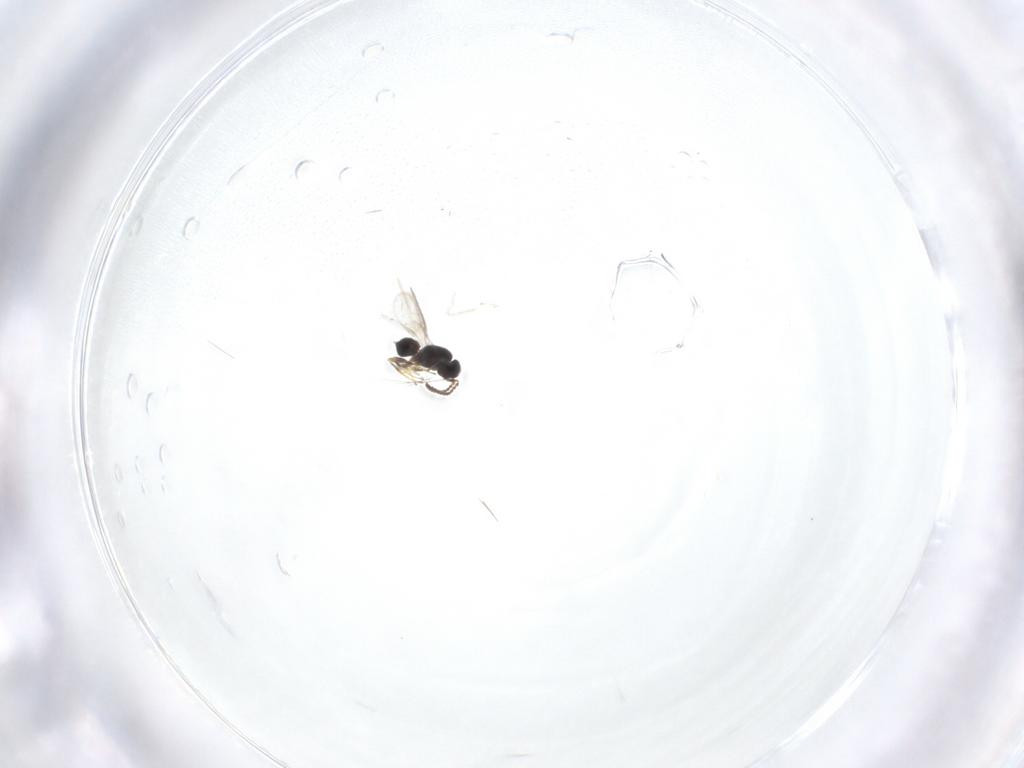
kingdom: Animalia
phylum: Arthropoda
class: Insecta
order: Hymenoptera
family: Scelionidae
